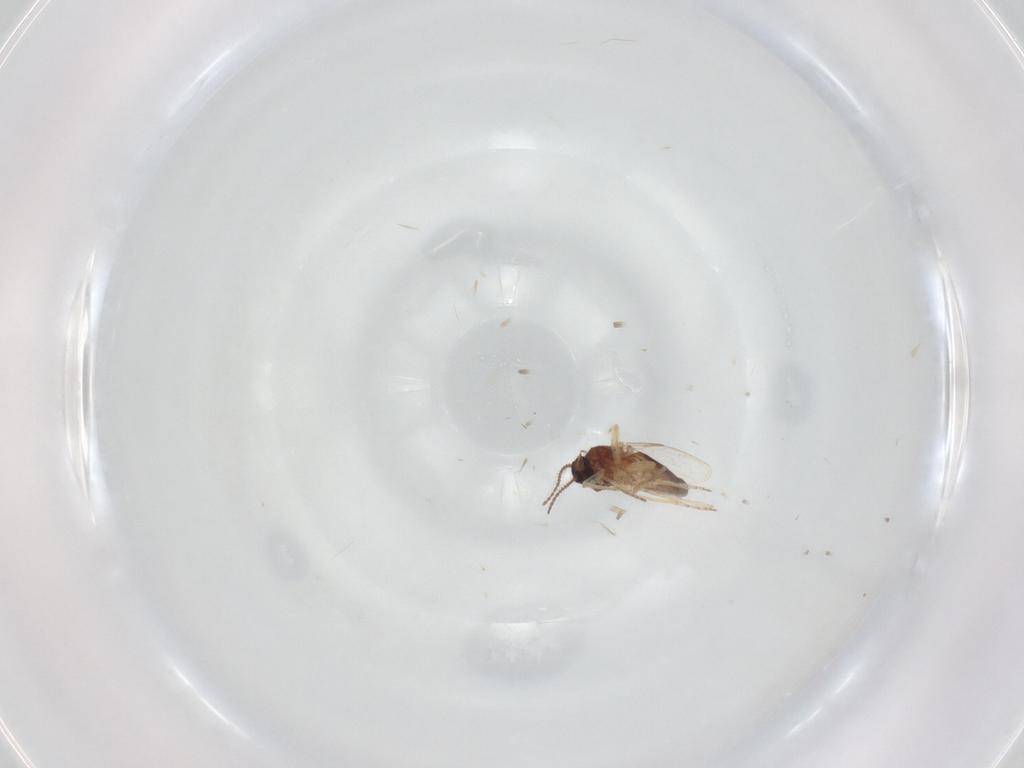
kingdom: Animalia
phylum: Arthropoda
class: Insecta
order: Diptera
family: Ceratopogonidae
